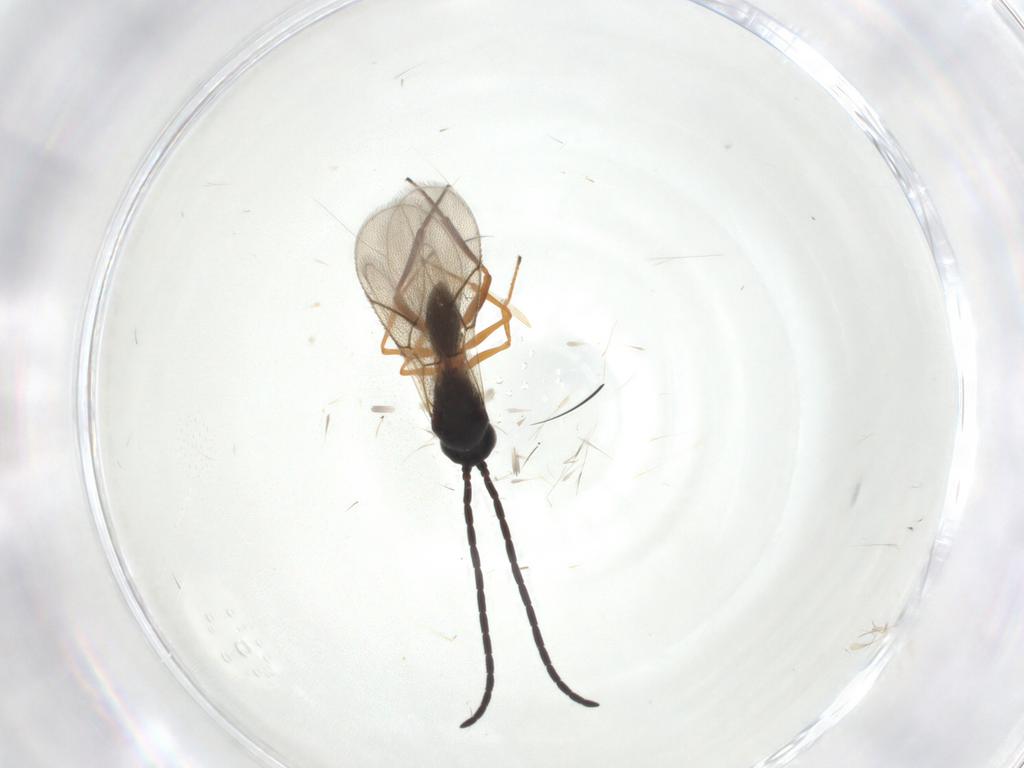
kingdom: Animalia
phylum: Arthropoda
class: Insecta
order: Hymenoptera
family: Figitidae
